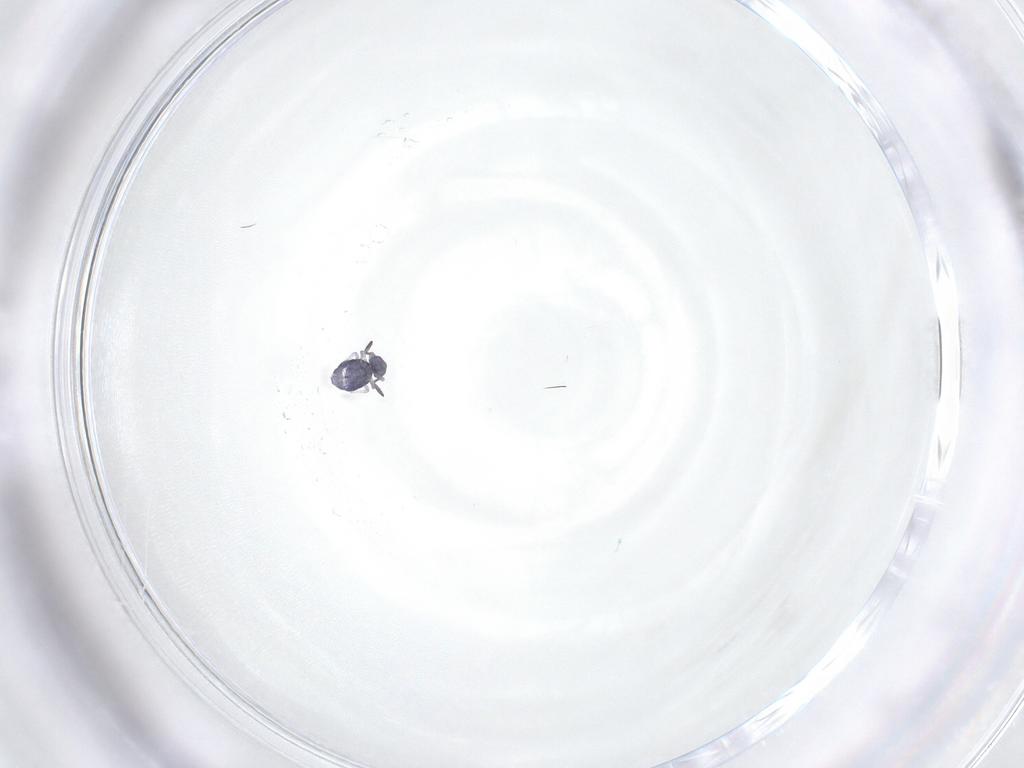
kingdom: Animalia
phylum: Arthropoda
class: Collembola
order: Symphypleona
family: Katiannidae
